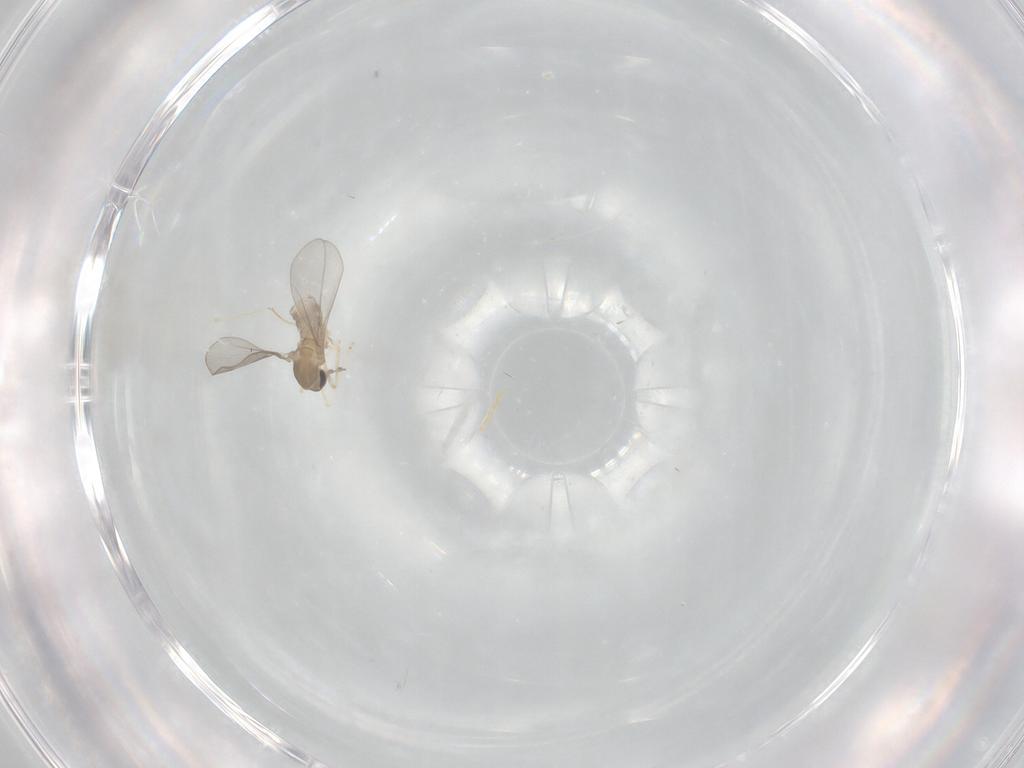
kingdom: Animalia
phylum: Arthropoda
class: Insecta
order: Diptera
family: Cecidomyiidae
